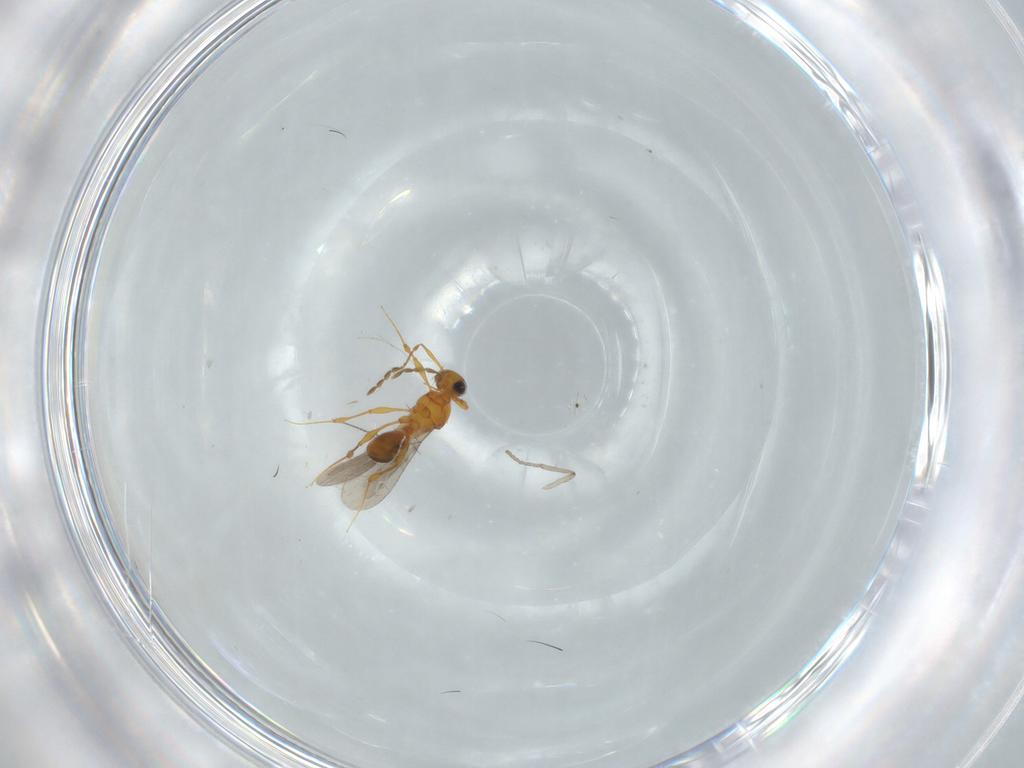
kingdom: Animalia
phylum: Arthropoda
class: Insecta
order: Hymenoptera
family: Platygastridae
